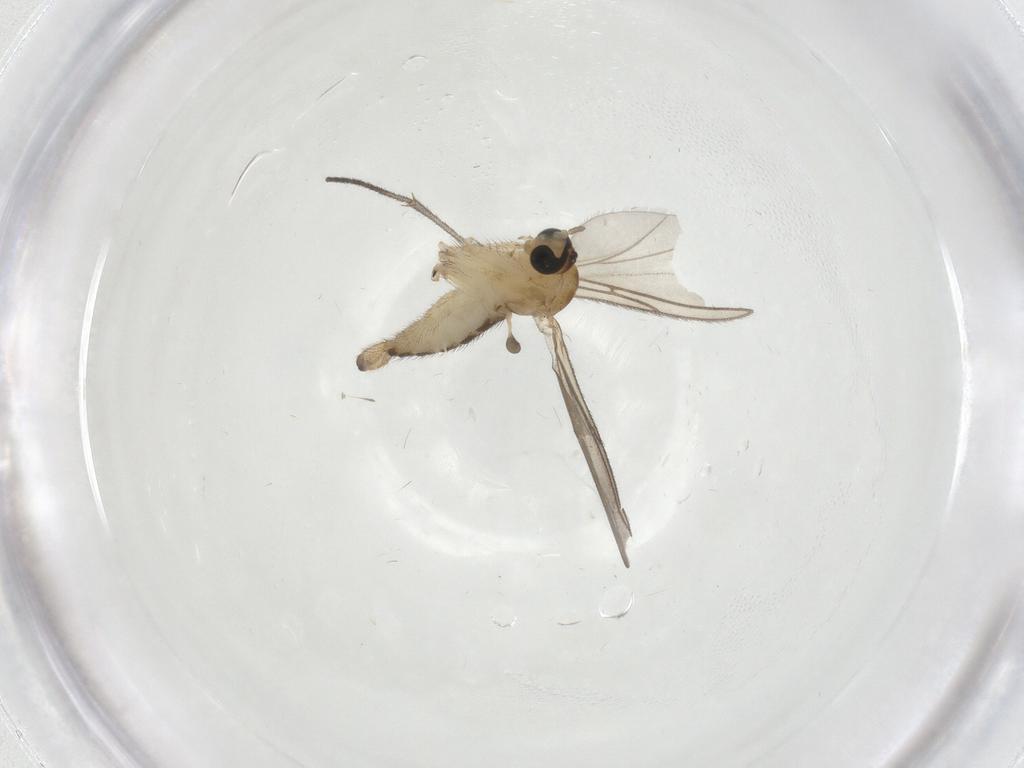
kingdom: Animalia
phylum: Arthropoda
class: Insecta
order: Diptera
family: Sciaridae
